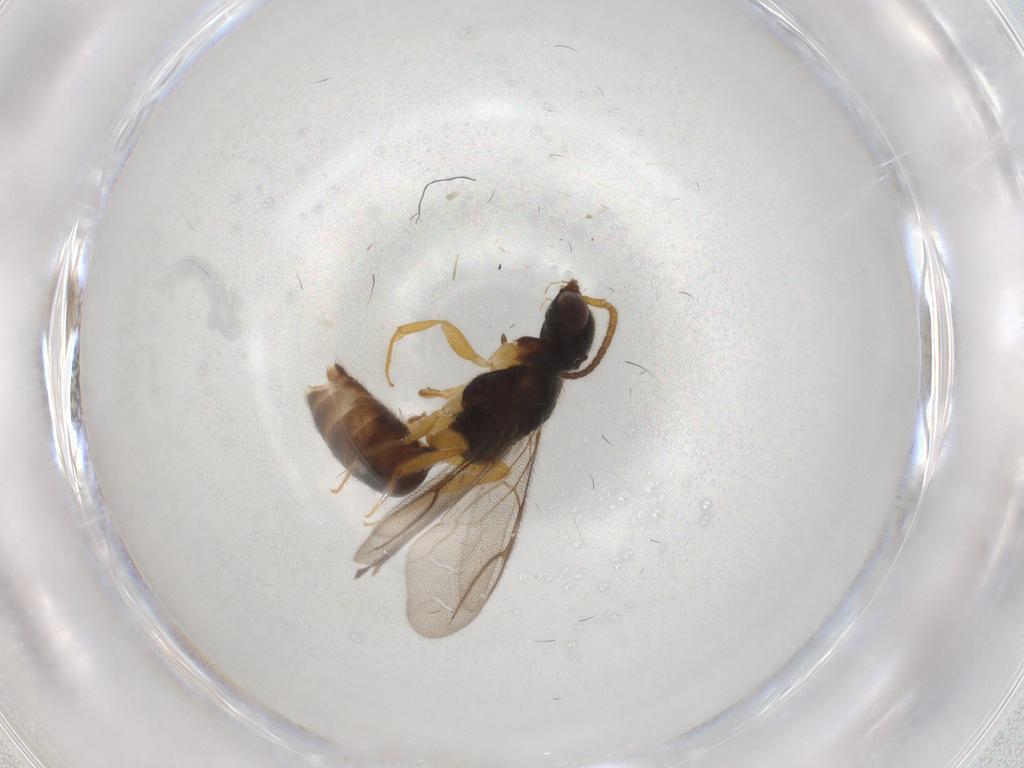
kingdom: Animalia
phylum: Arthropoda
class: Insecta
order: Hymenoptera
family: Bethylidae
